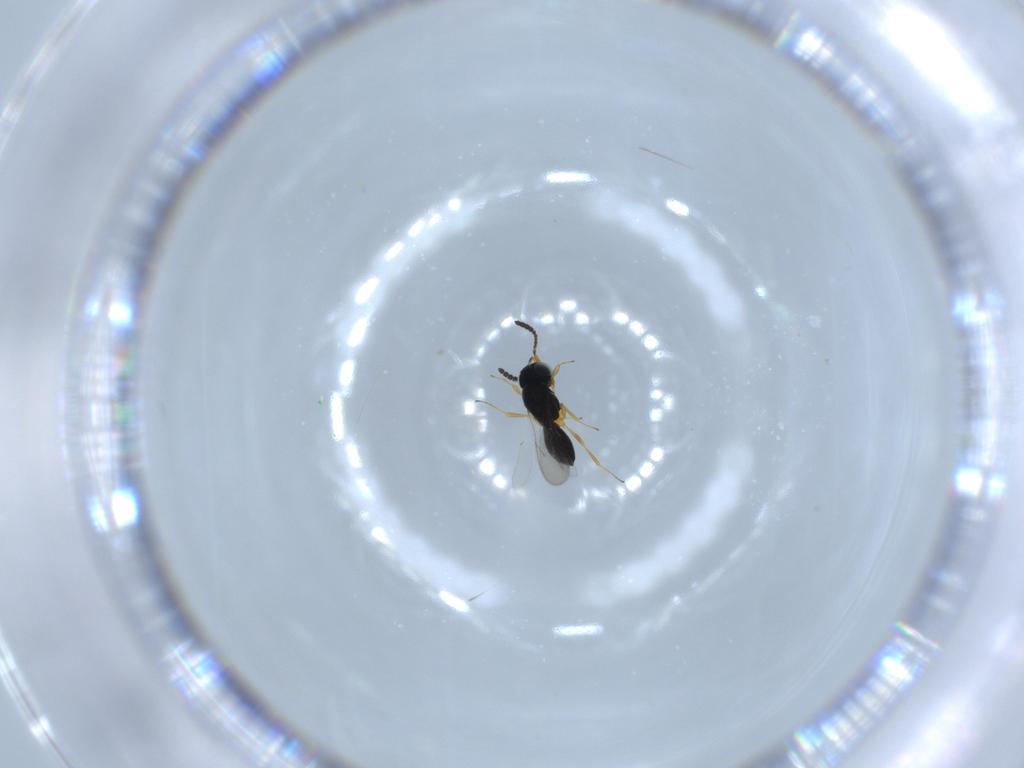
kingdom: Animalia
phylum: Arthropoda
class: Insecta
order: Hymenoptera
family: Scelionidae
